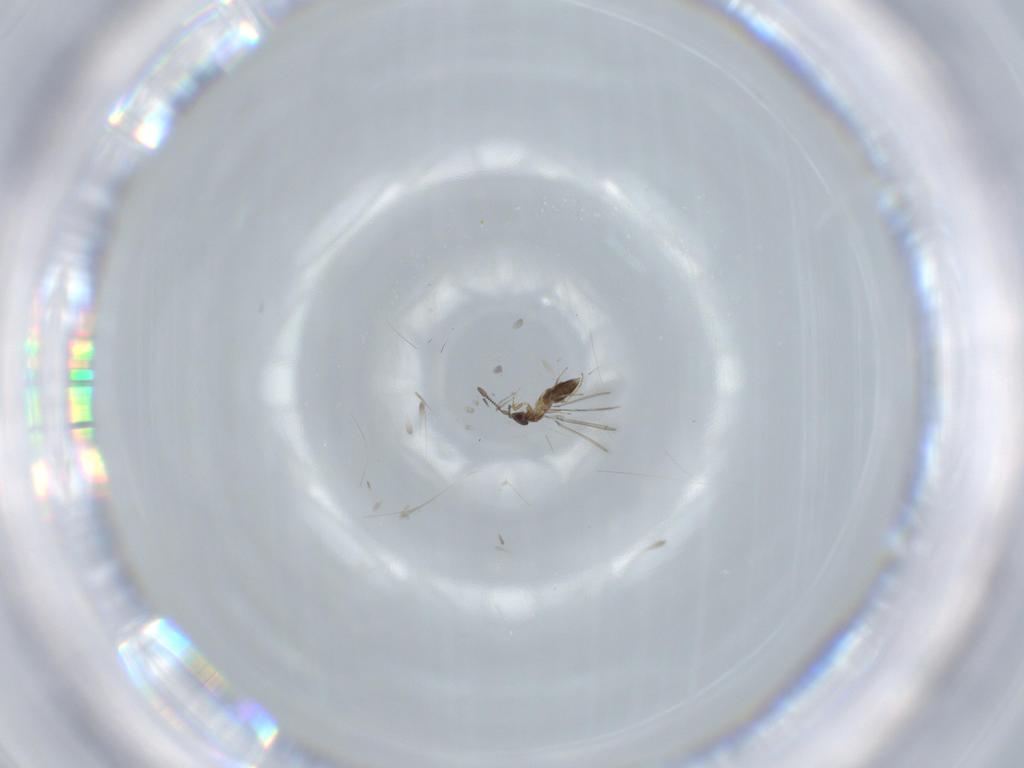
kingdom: Animalia
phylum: Arthropoda
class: Insecta
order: Hymenoptera
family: Mymaridae
